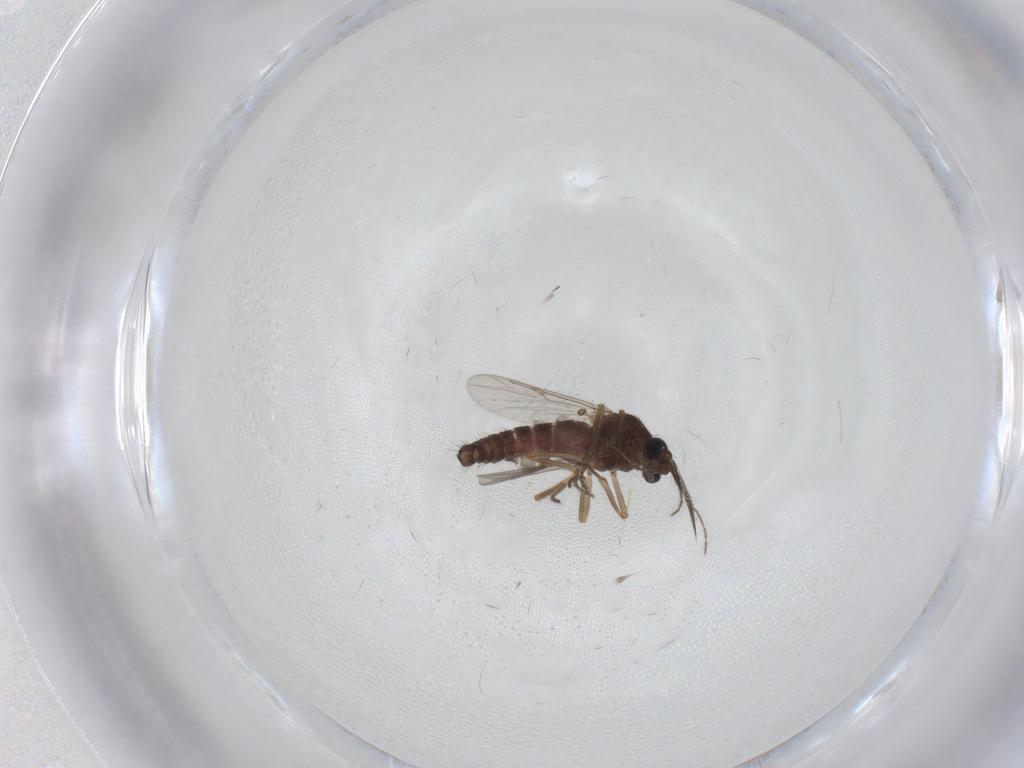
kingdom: Animalia
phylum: Arthropoda
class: Insecta
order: Diptera
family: Ceratopogonidae
